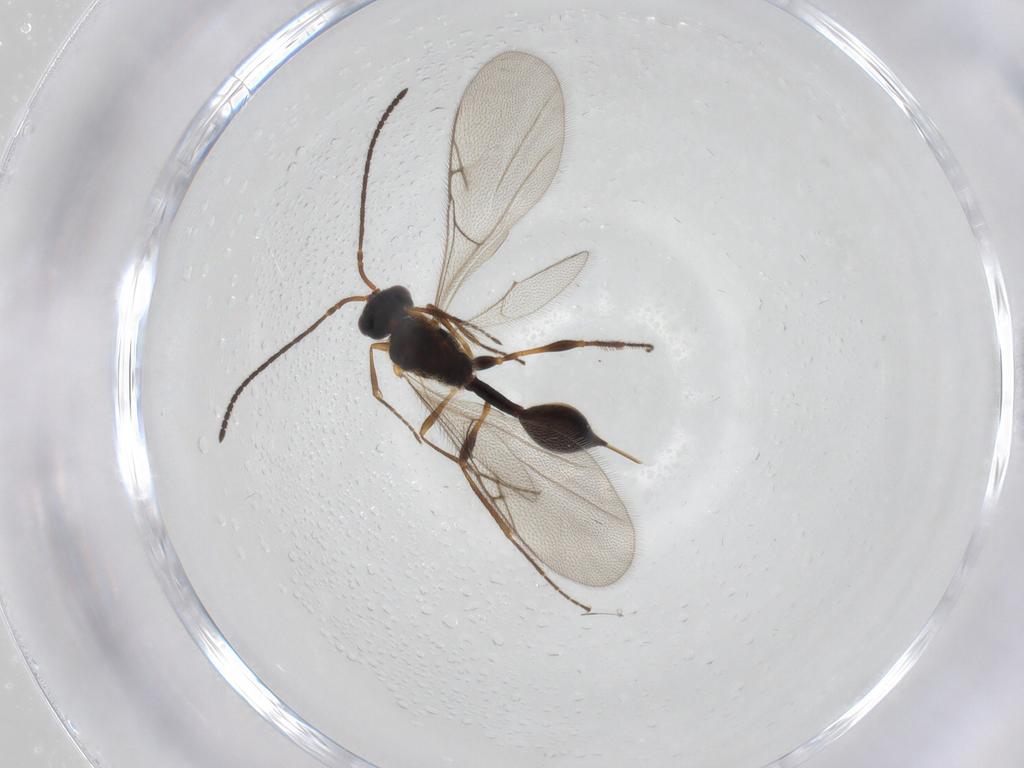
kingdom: Animalia
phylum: Arthropoda
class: Insecta
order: Hymenoptera
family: Diapriidae
